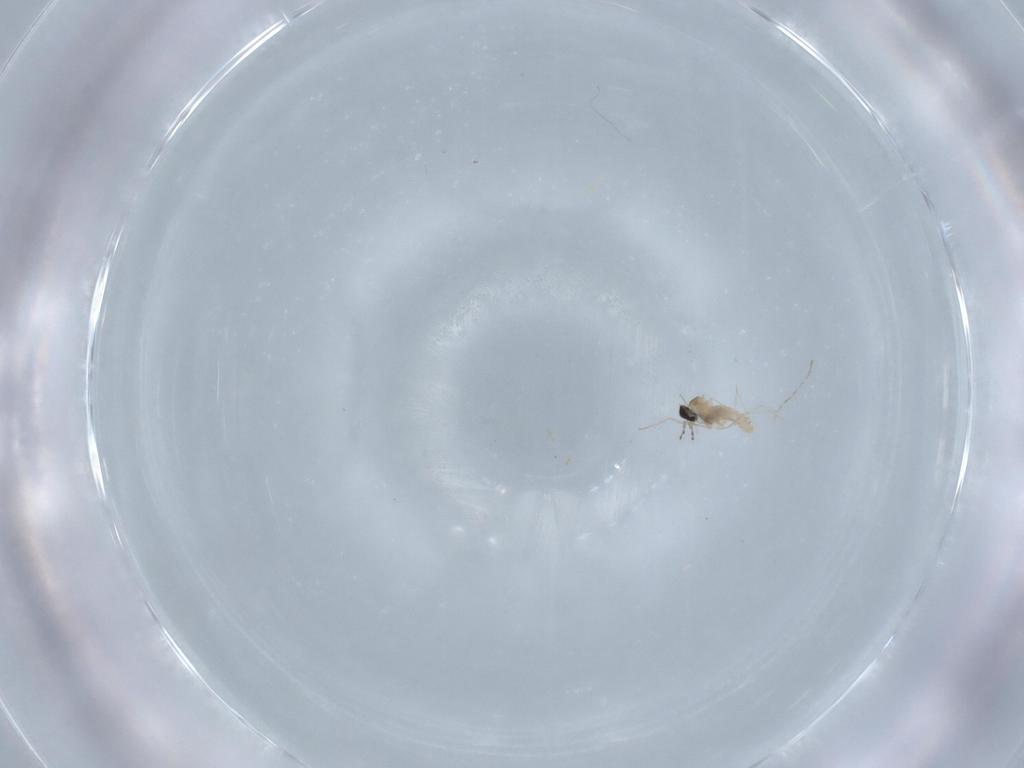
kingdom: Animalia
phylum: Arthropoda
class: Insecta
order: Diptera
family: Cecidomyiidae
